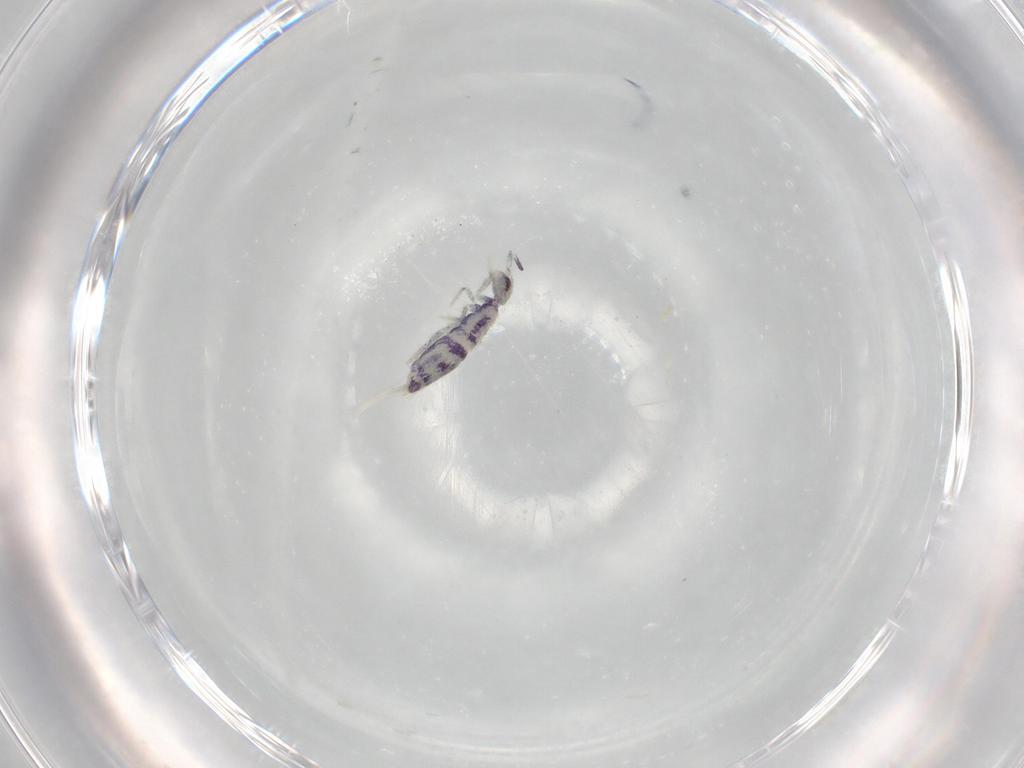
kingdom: Animalia
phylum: Arthropoda
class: Collembola
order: Entomobryomorpha
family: Entomobryidae
